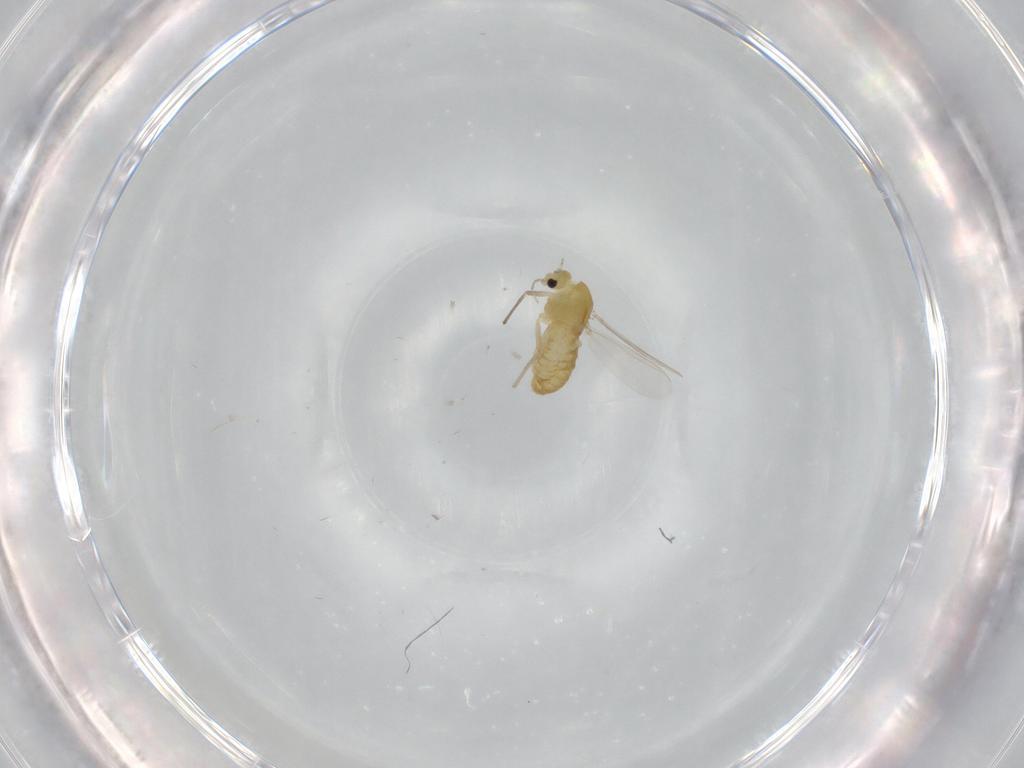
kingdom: Animalia
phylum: Arthropoda
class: Insecta
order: Diptera
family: Chironomidae
